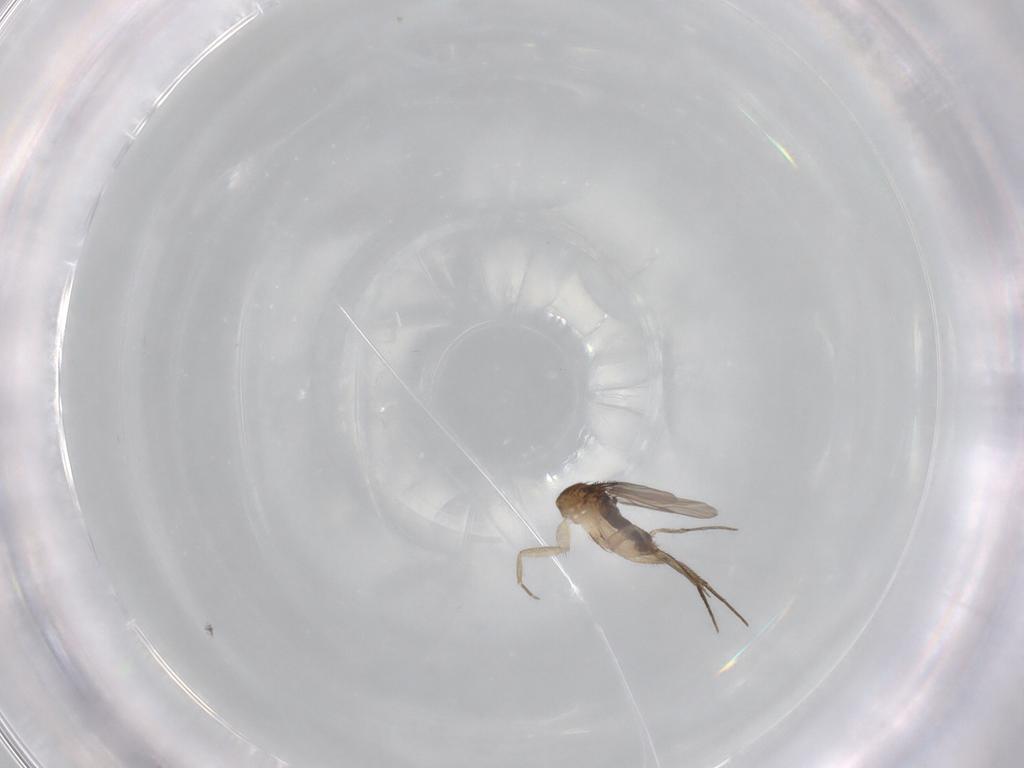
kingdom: Animalia
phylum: Arthropoda
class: Insecta
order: Diptera
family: Phoridae
